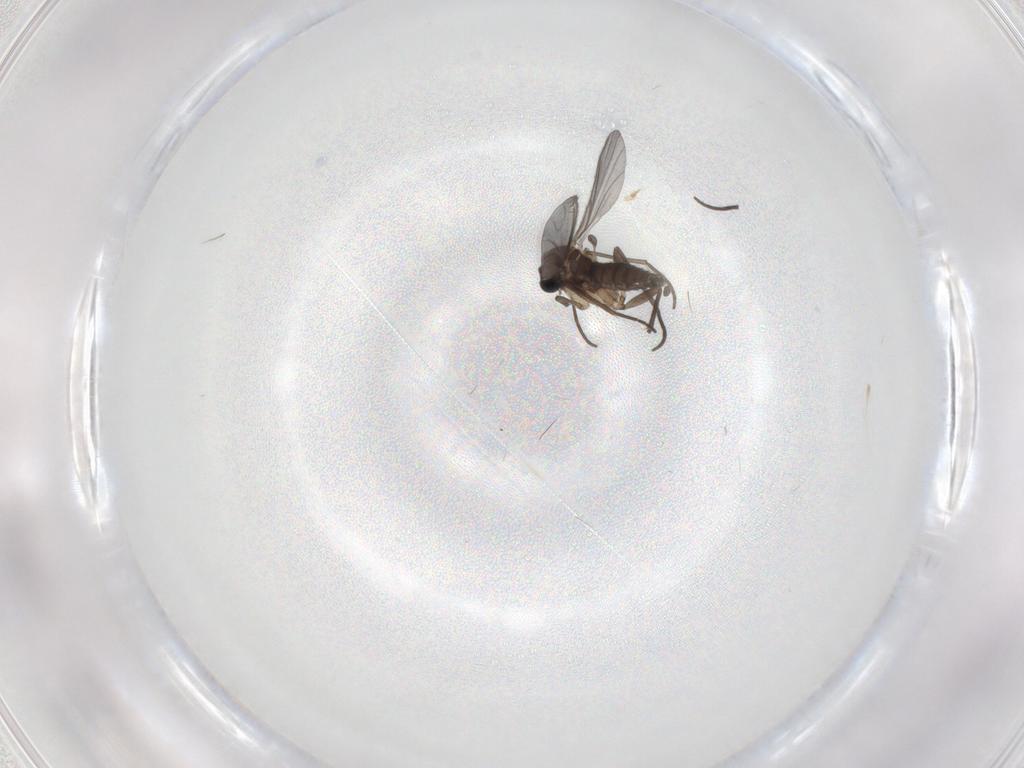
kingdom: Animalia
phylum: Arthropoda
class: Insecta
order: Diptera
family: Sciaridae
